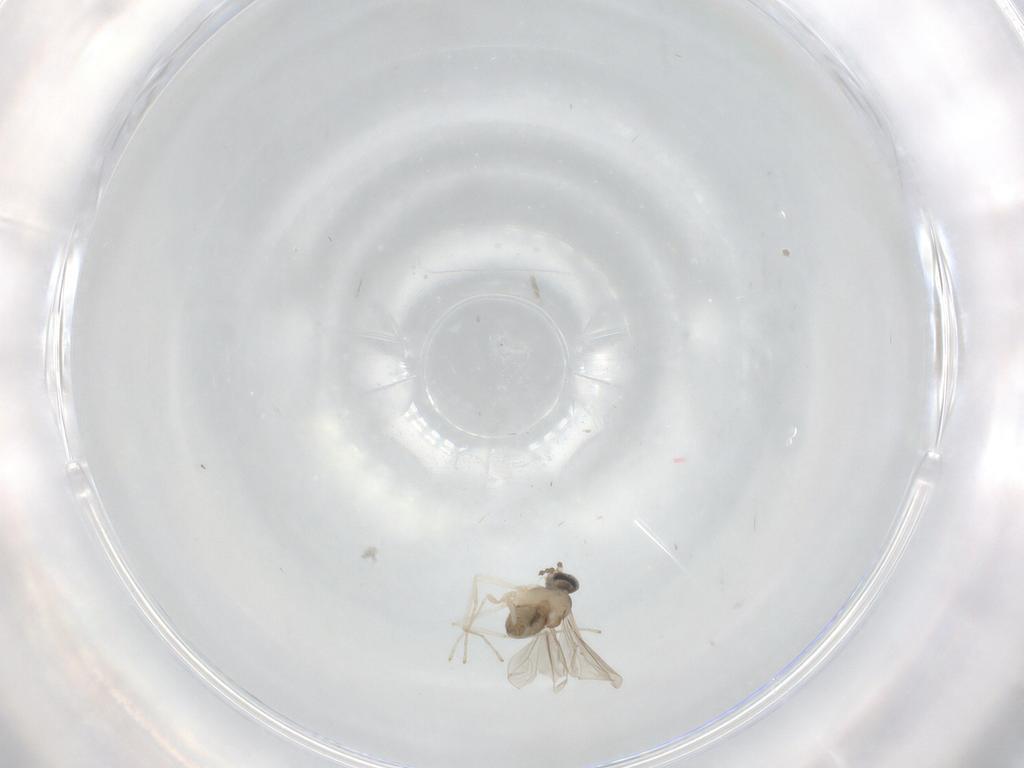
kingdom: Animalia
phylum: Arthropoda
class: Insecta
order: Diptera
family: Cecidomyiidae
